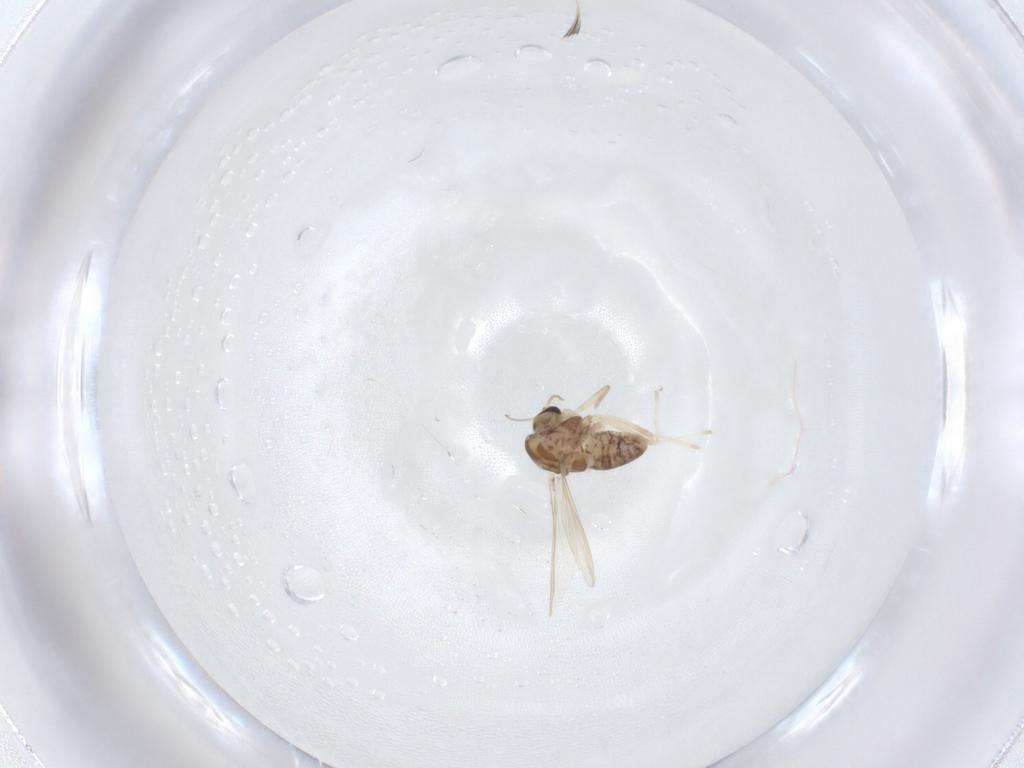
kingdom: Animalia
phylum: Arthropoda
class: Insecta
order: Diptera
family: Chironomidae
